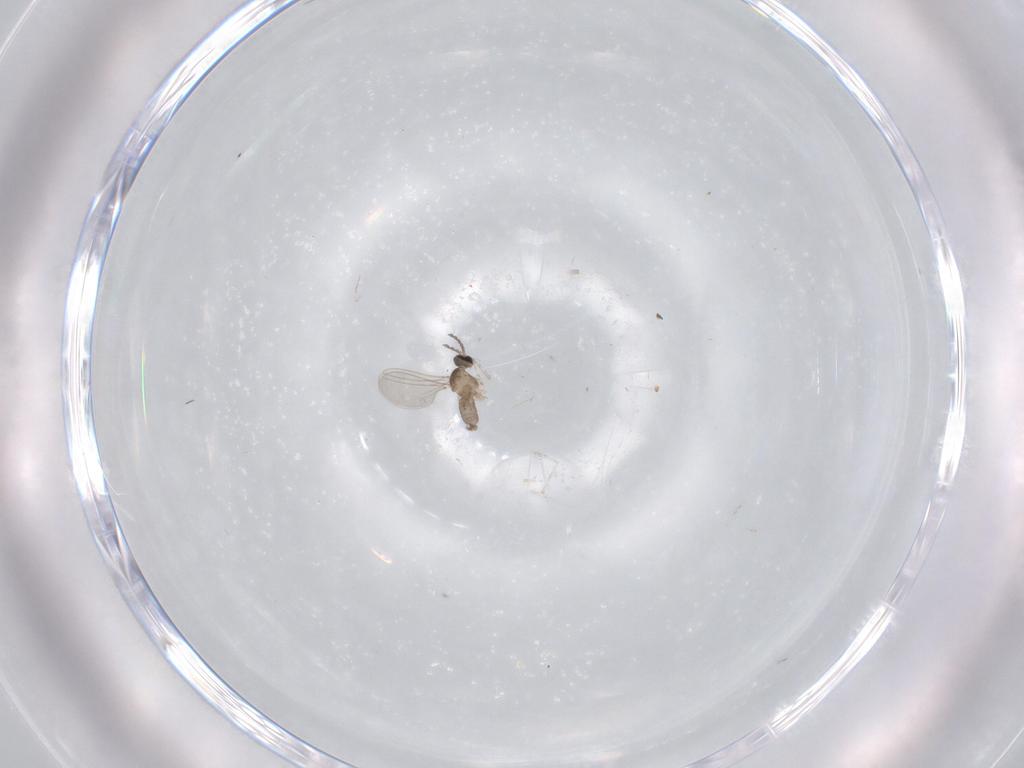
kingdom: Animalia
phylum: Arthropoda
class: Insecta
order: Diptera
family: Cecidomyiidae
